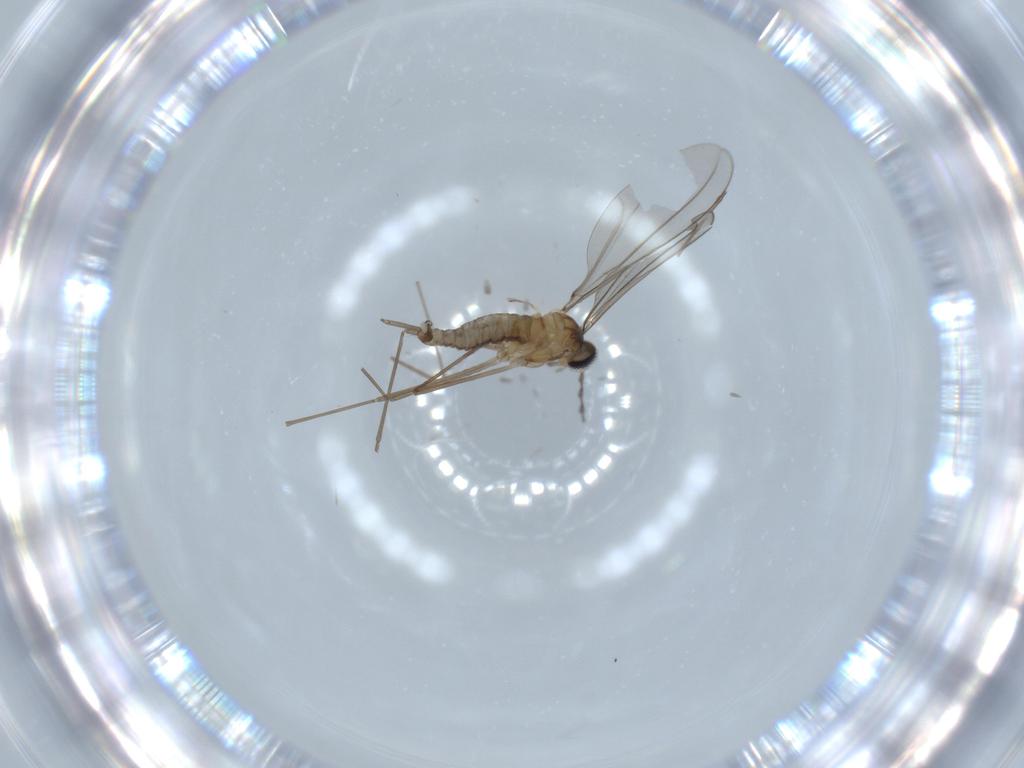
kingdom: Animalia
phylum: Arthropoda
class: Insecta
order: Diptera
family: Cecidomyiidae
